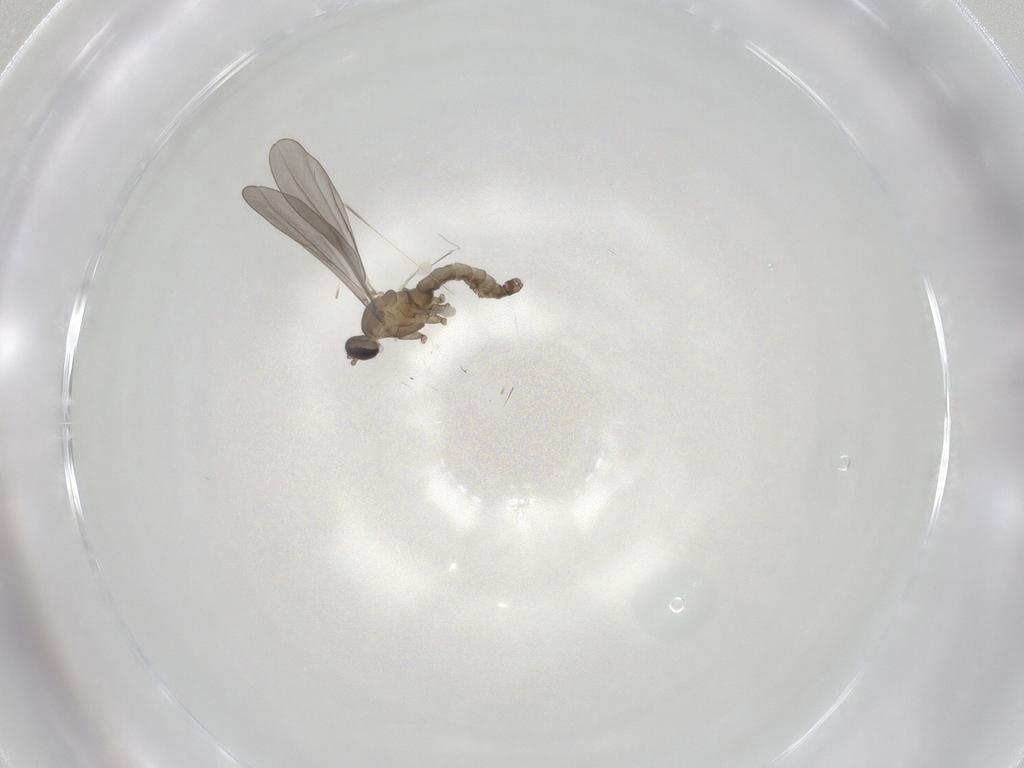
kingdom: Animalia
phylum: Arthropoda
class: Insecta
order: Diptera
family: Cecidomyiidae
